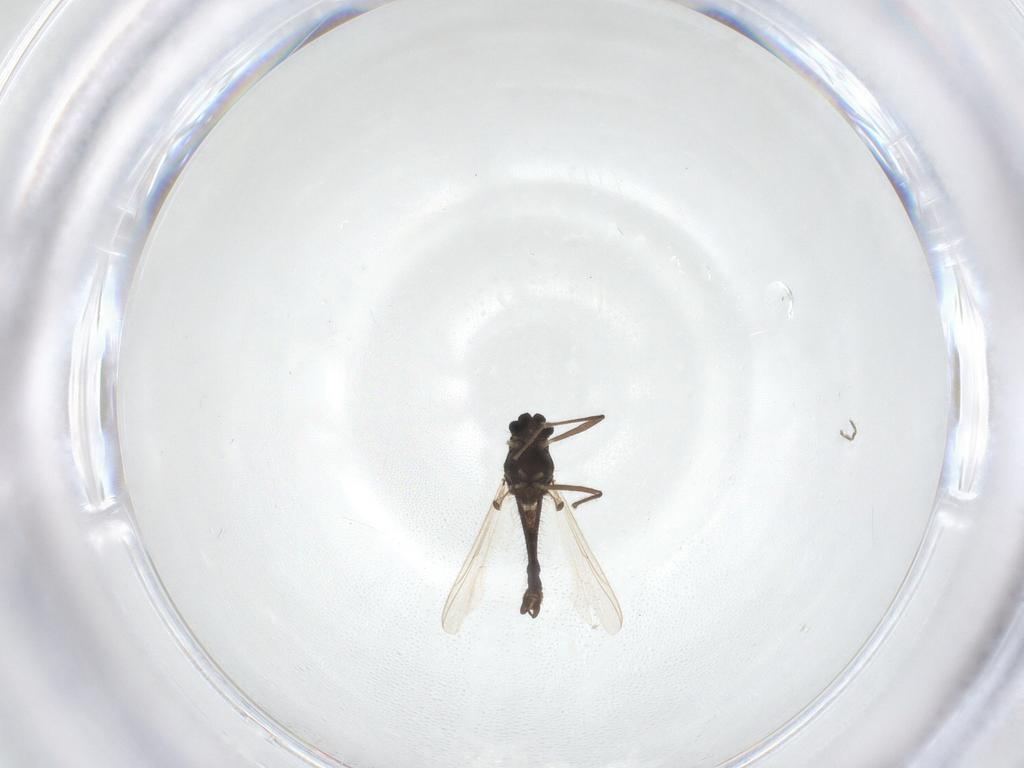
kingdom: Animalia
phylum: Arthropoda
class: Insecta
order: Diptera
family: Chironomidae
